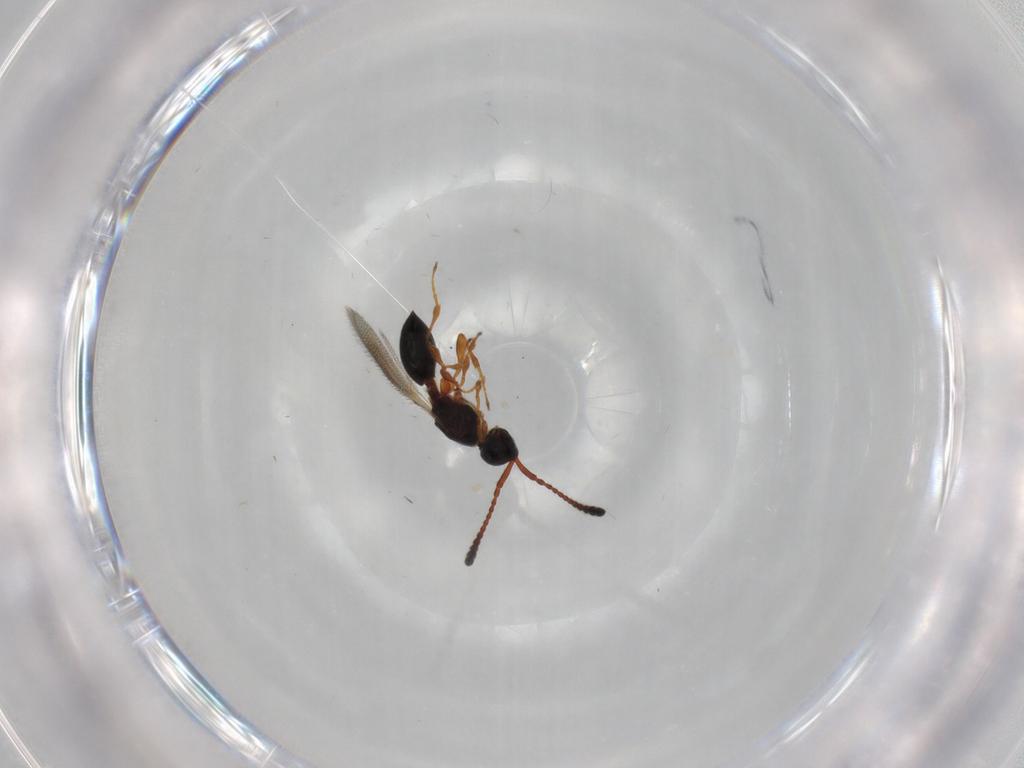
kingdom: Animalia
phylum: Arthropoda
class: Insecta
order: Hymenoptera
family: Diapriidae
